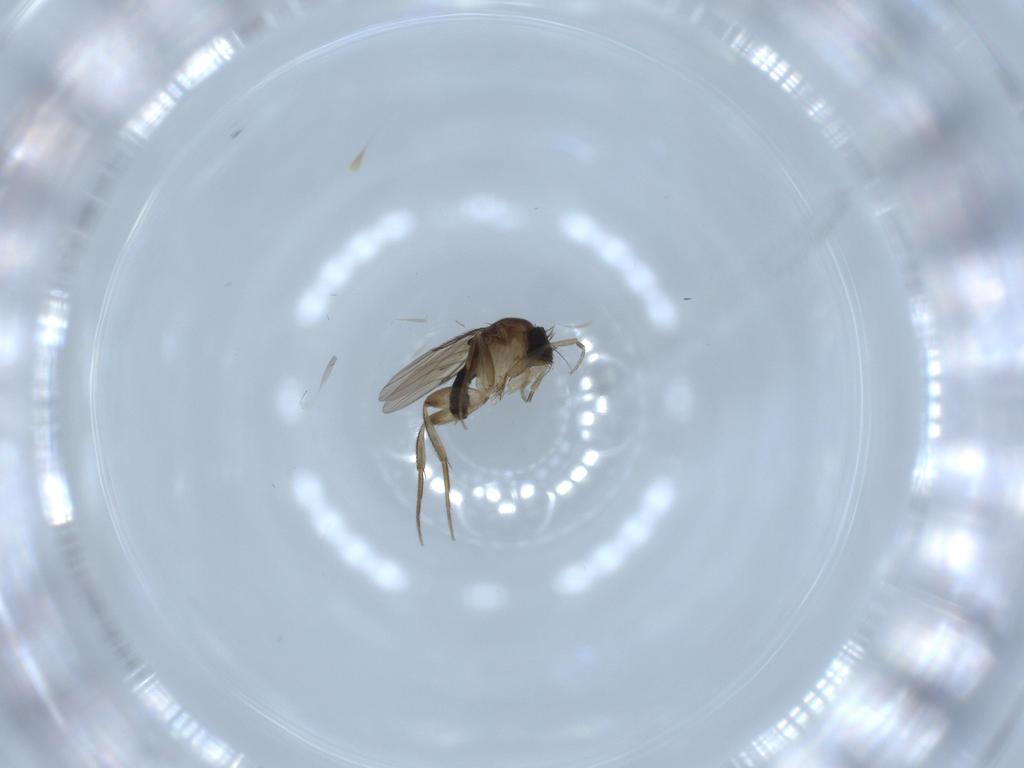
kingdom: Animalia
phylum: Arthropoda
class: Insecta
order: Diptera
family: Phoridae
